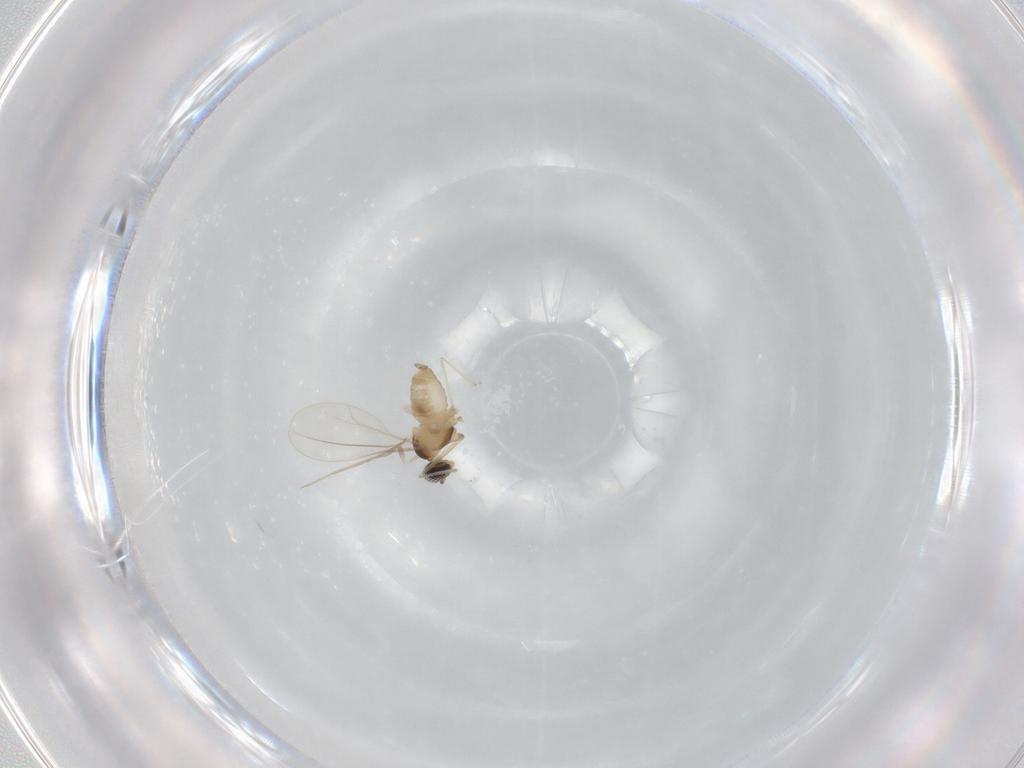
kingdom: Animalia
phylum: Arthropoda
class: Insecta
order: Diptera
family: Cecidomyiidae
